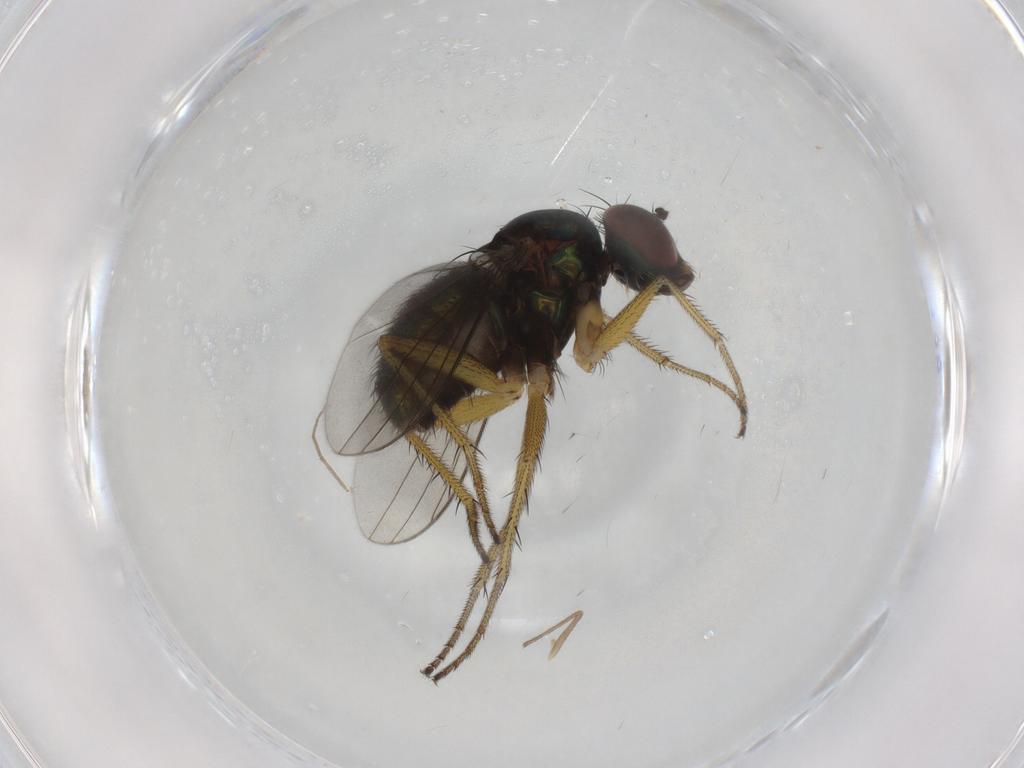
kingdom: Animalia
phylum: Arthropoda
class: Insecta
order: Diptera
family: Dolichopodidae
